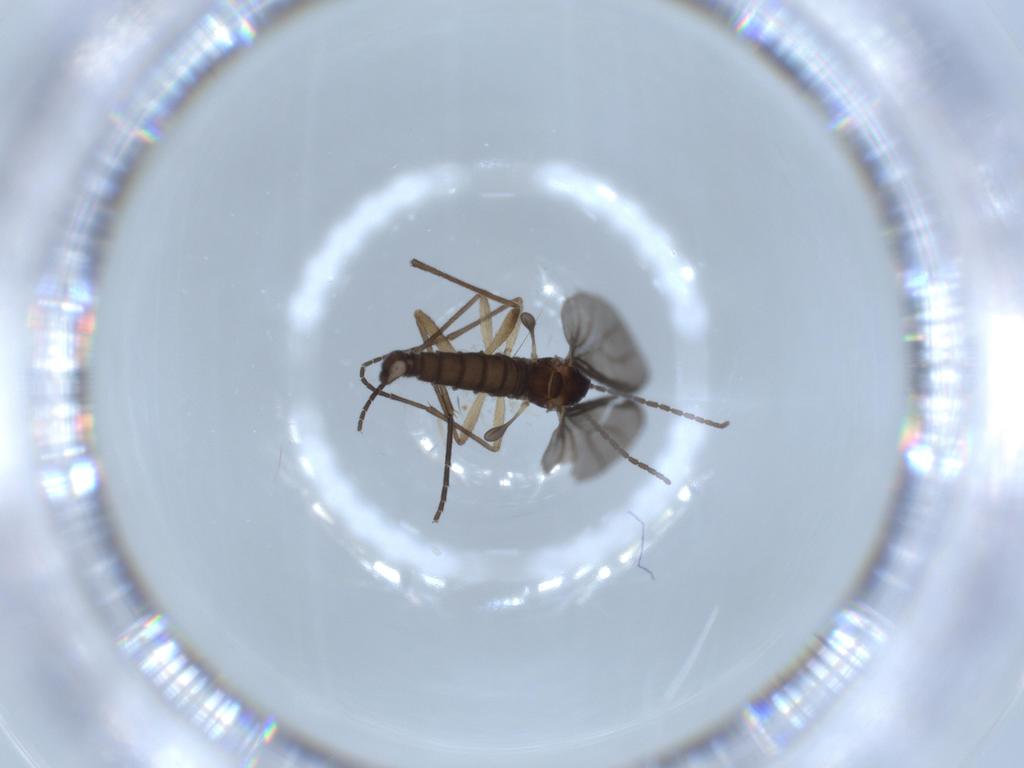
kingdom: Animalia
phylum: Arthropoda
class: Insecta
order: Diptera
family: Sciaridae
